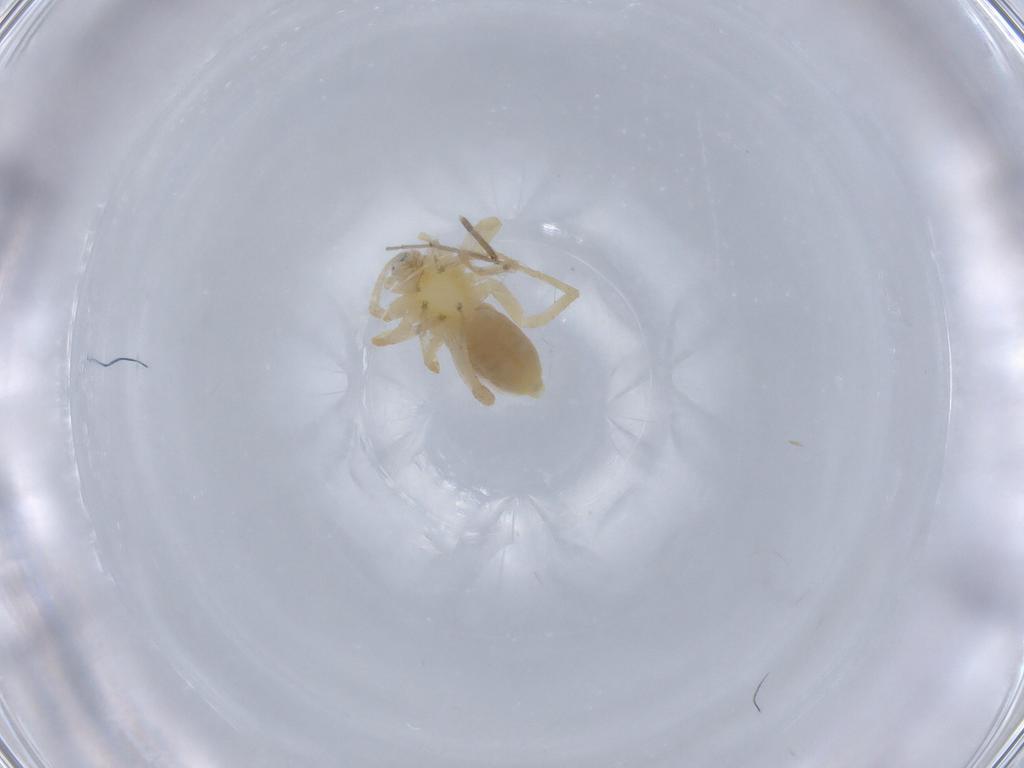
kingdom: Animalia
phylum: Arthropoda
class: Arachnida
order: Araneae
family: Anyphaenidae
